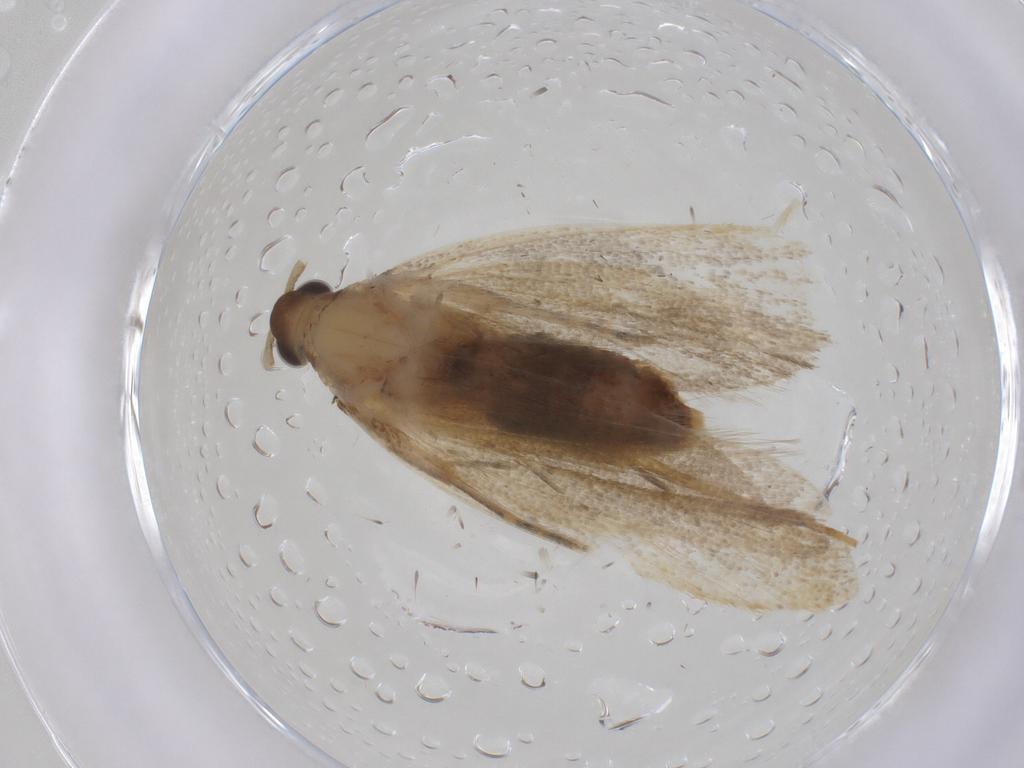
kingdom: Animalia
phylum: Arthropoda
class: Insecta
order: Lepidoptera
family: Lecithoceridae
